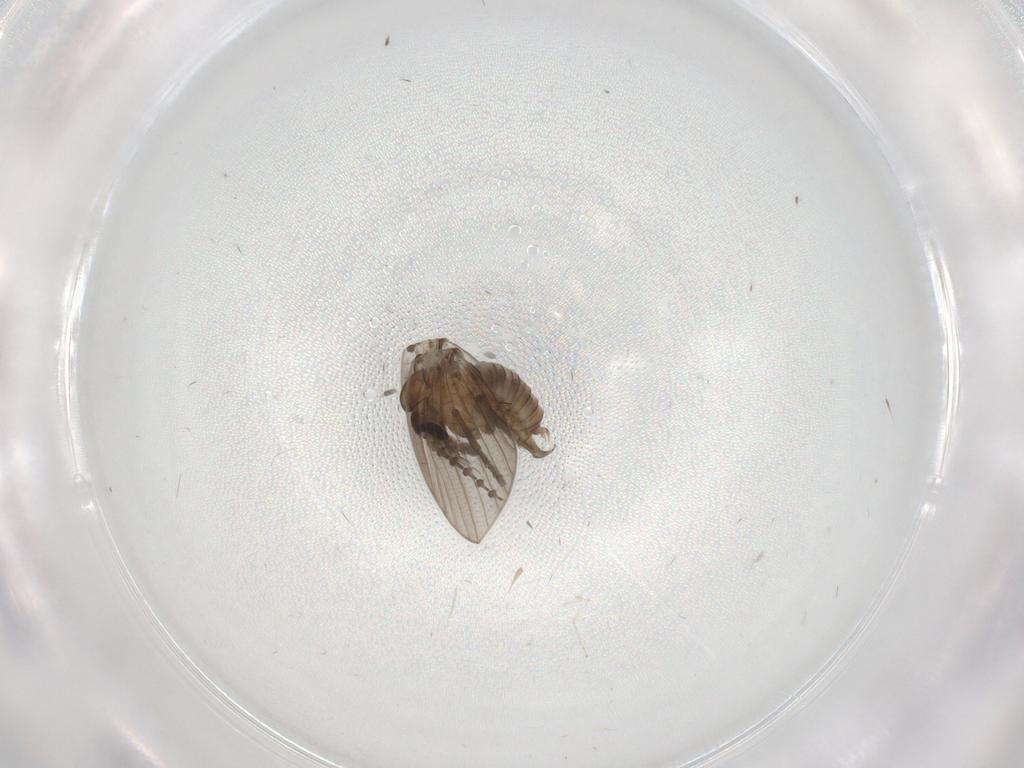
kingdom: Animalia
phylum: Arthropoda
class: Insecta
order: Diptera
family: Psychodidae
